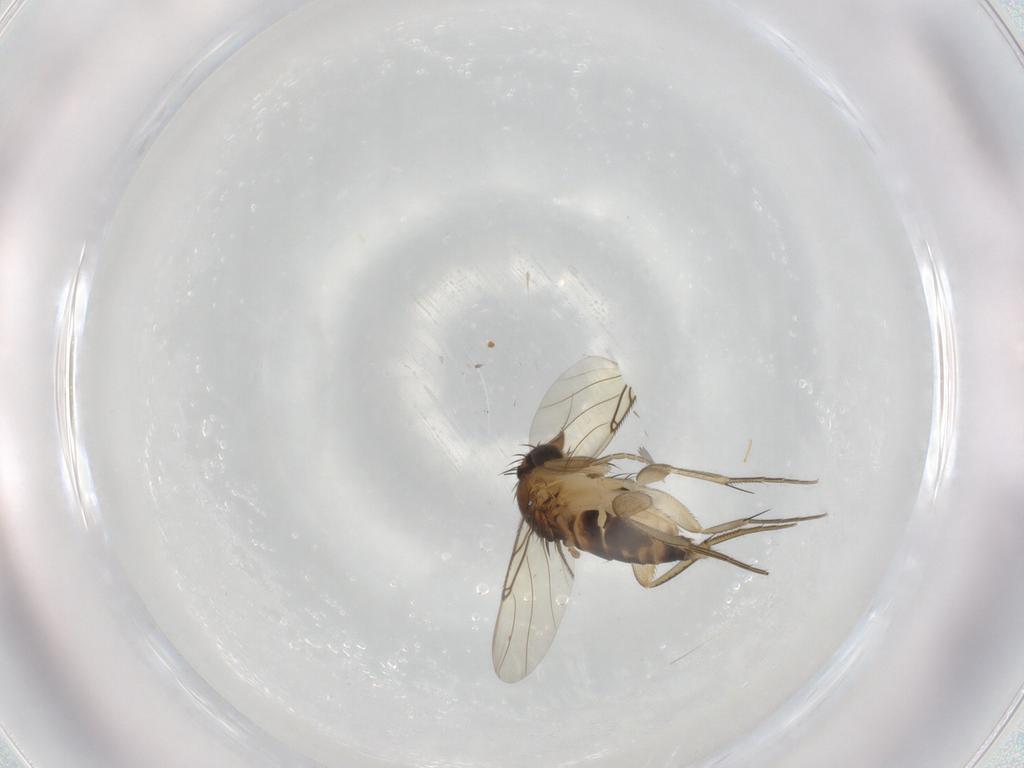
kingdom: Animalia
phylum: Arthropoda
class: Insecta
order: Diptera
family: Phoridae
